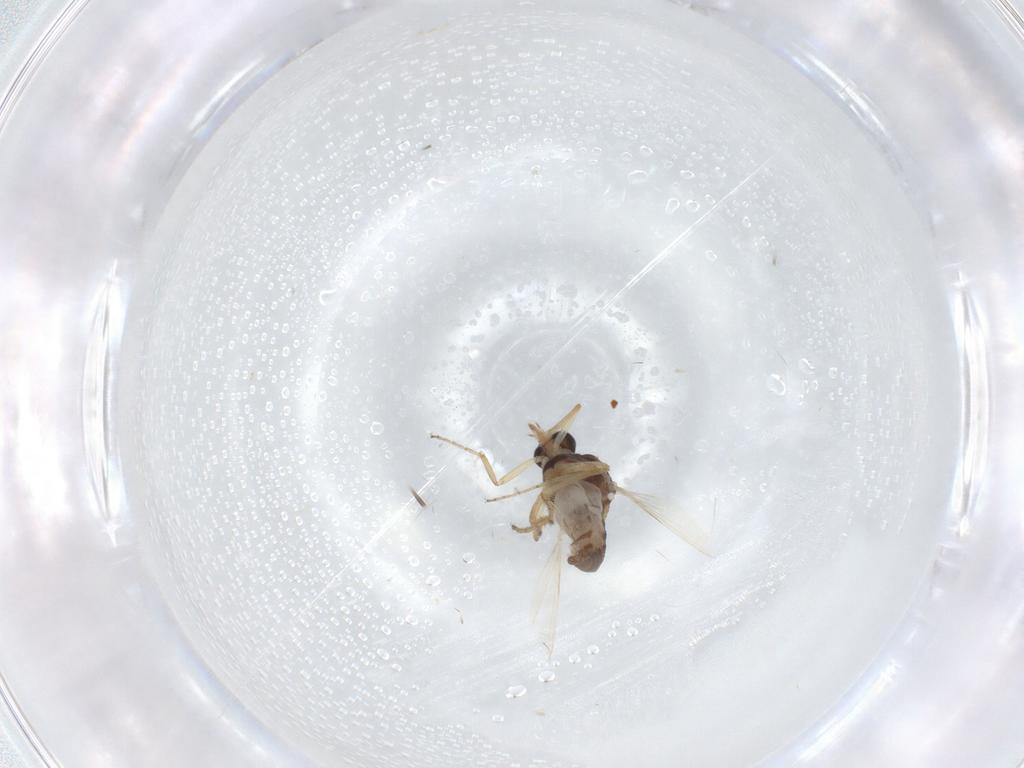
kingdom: Animalia
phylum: Arthropoda
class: Insecta
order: Diptera
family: Ceratopogonidae
